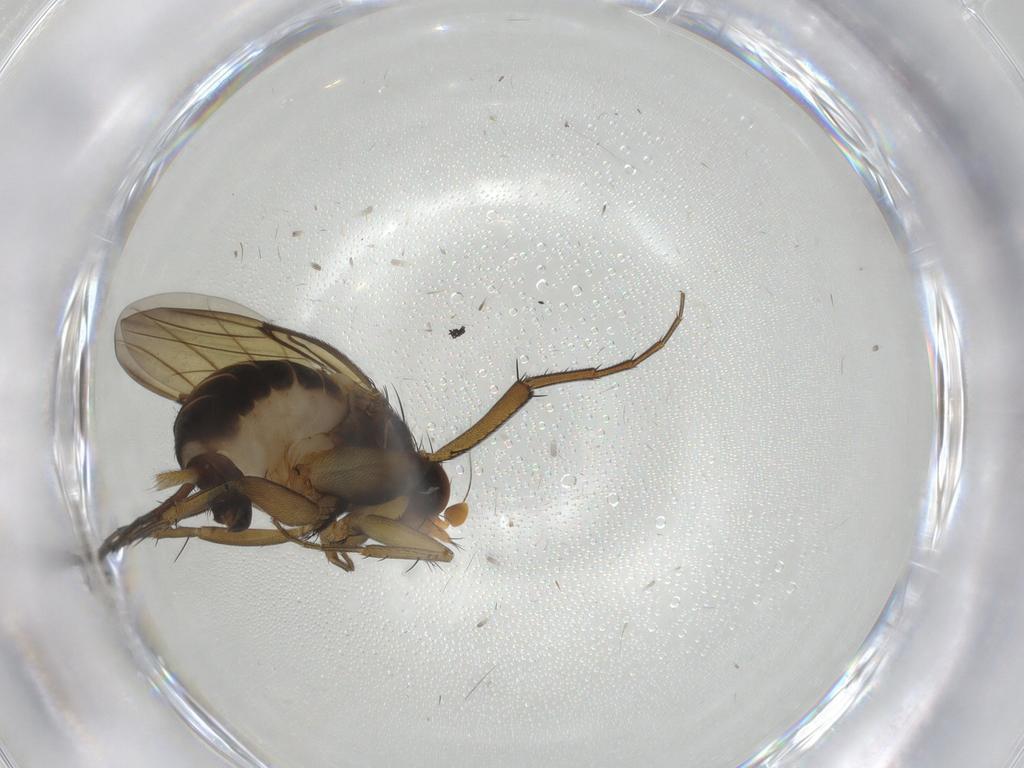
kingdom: Animalia
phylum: Arthropoda
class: Insecta
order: Diptera
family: Phoridae
